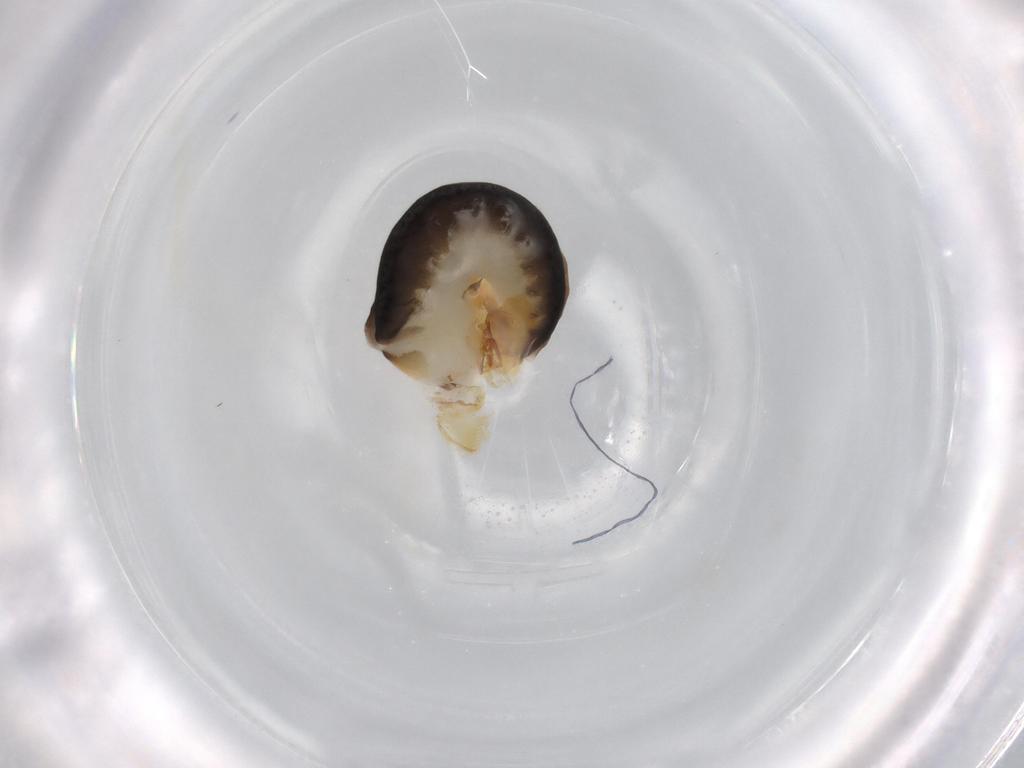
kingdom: Animalia
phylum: Arthropoda
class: Insecta
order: Hymenoptera
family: Dryinidae
